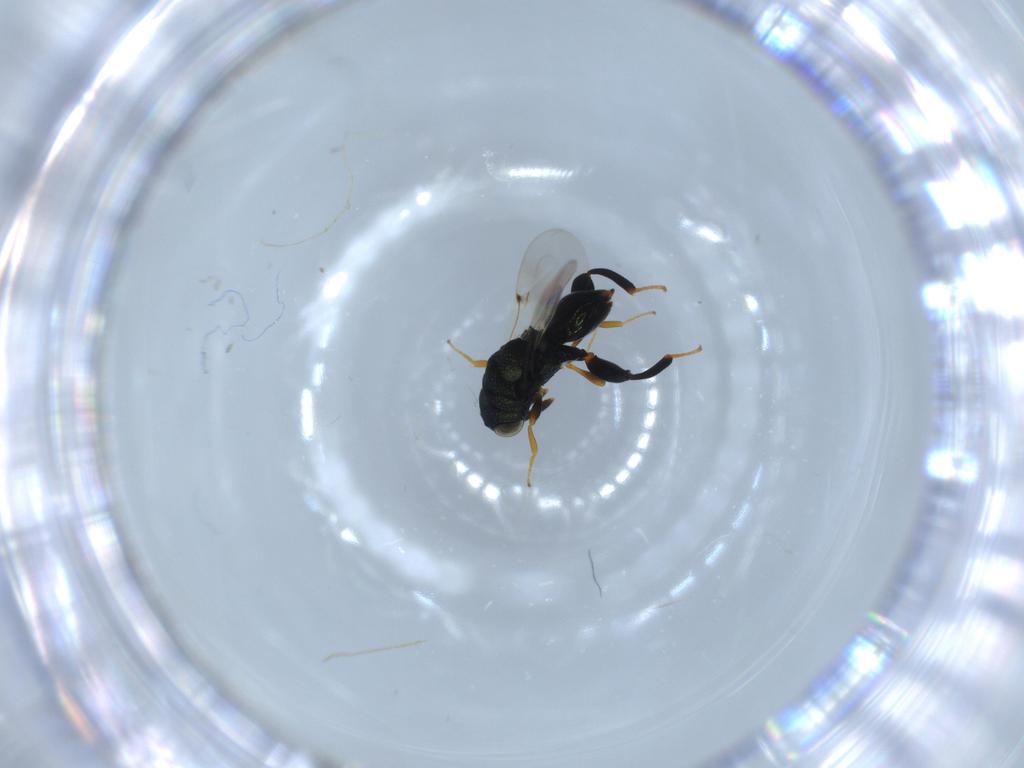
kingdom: Animalia
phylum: Arthropoda
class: Insecta
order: Hymenoptera
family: Chalcididae
